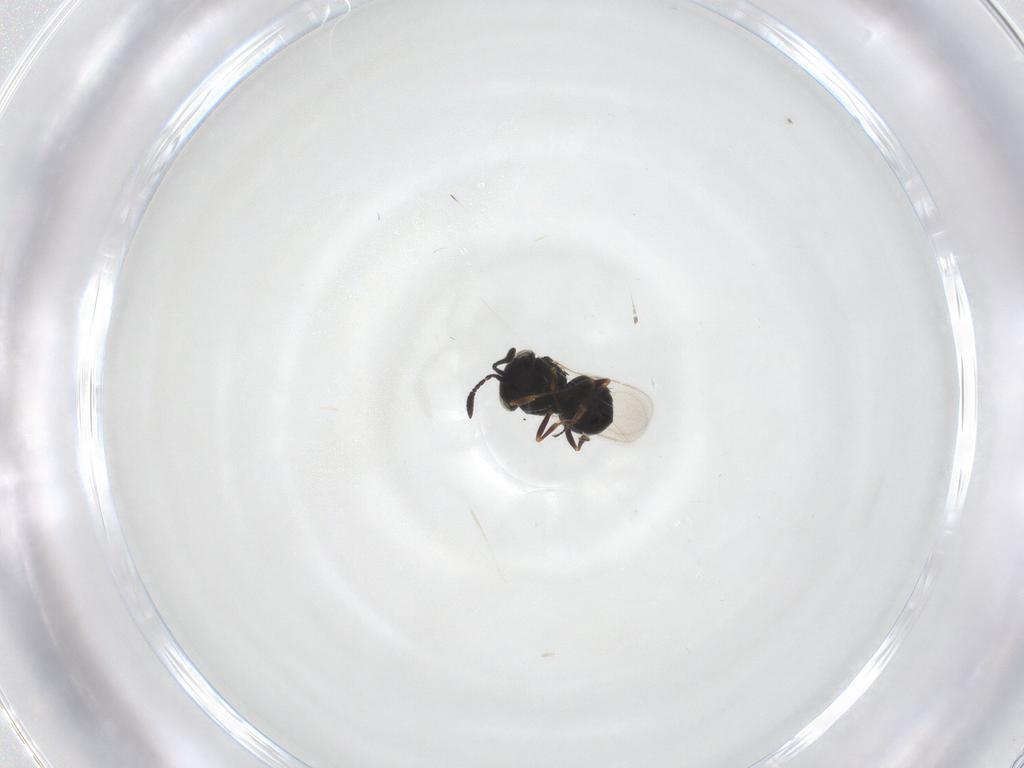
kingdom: Animalia
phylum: Arthropoda
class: Insecta
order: Hymenoptera
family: Scelionidae
